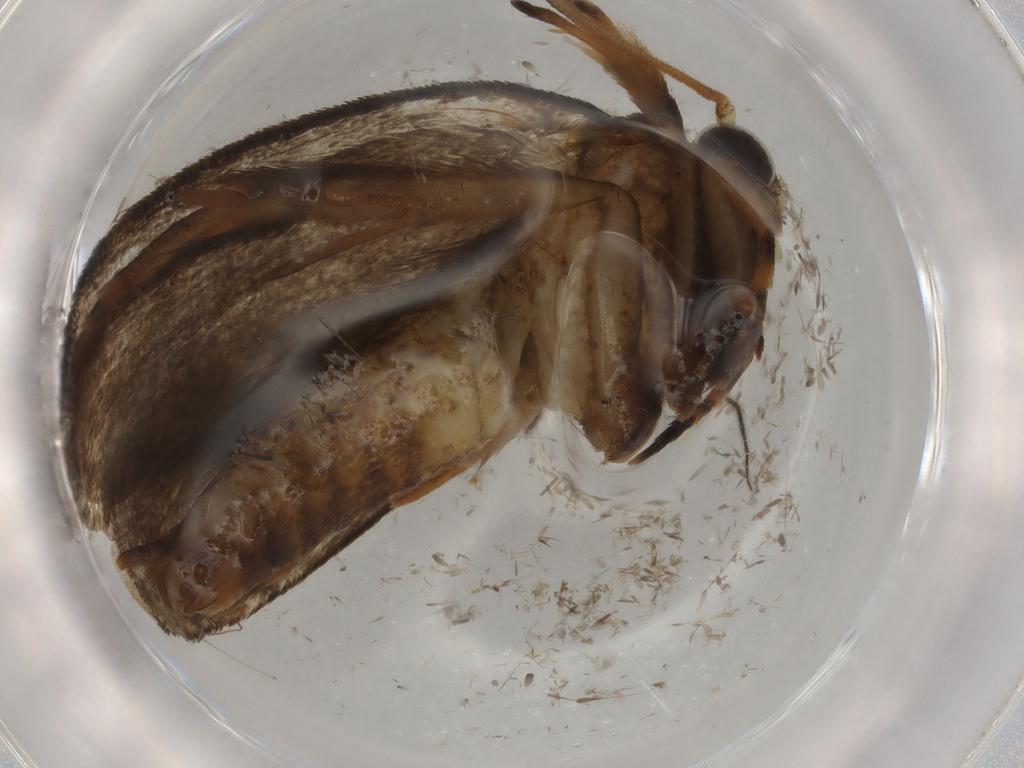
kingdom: Animalia
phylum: Arthropoda
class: Insecta
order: Lepidoptera
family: Tineidae
